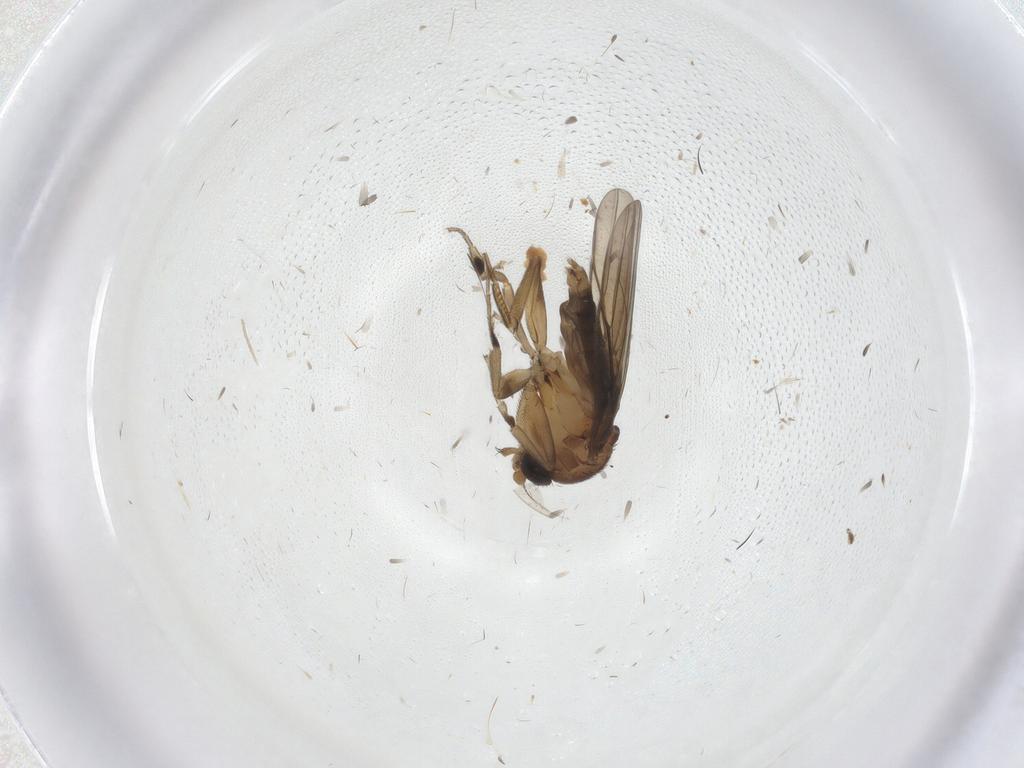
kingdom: Animalia
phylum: Arthropoda
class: Insecta
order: Diptera
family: Phoridae
